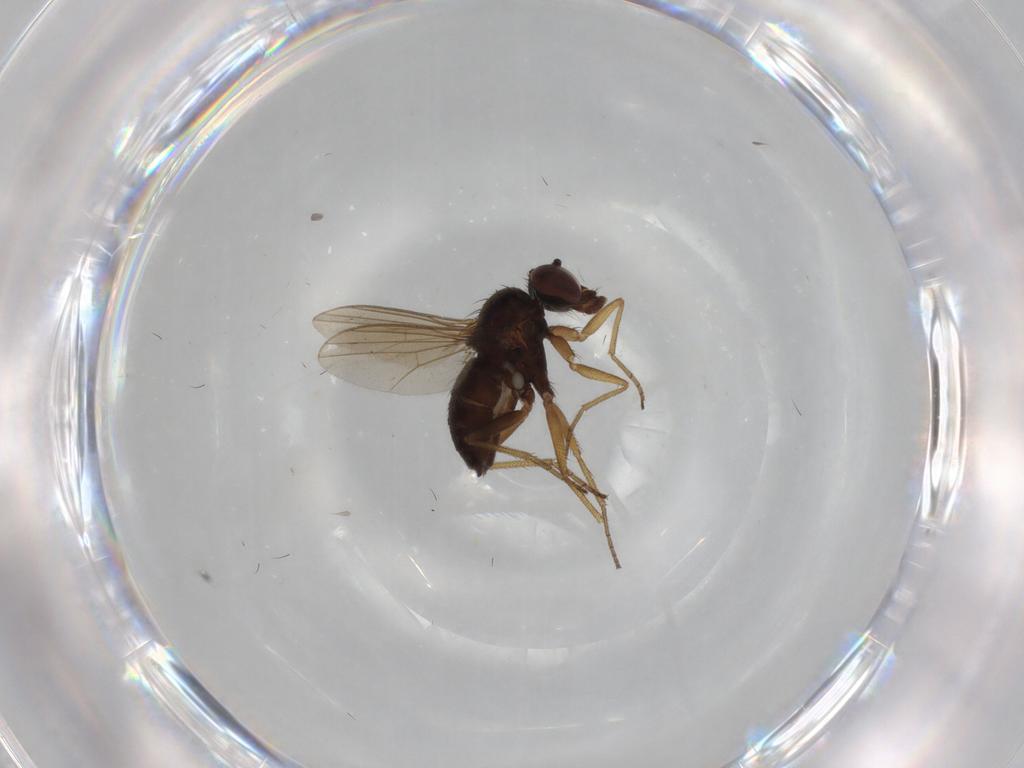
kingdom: Animalia
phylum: Arthropoda
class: Insecta
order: Diptera
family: Dolichopodidae
